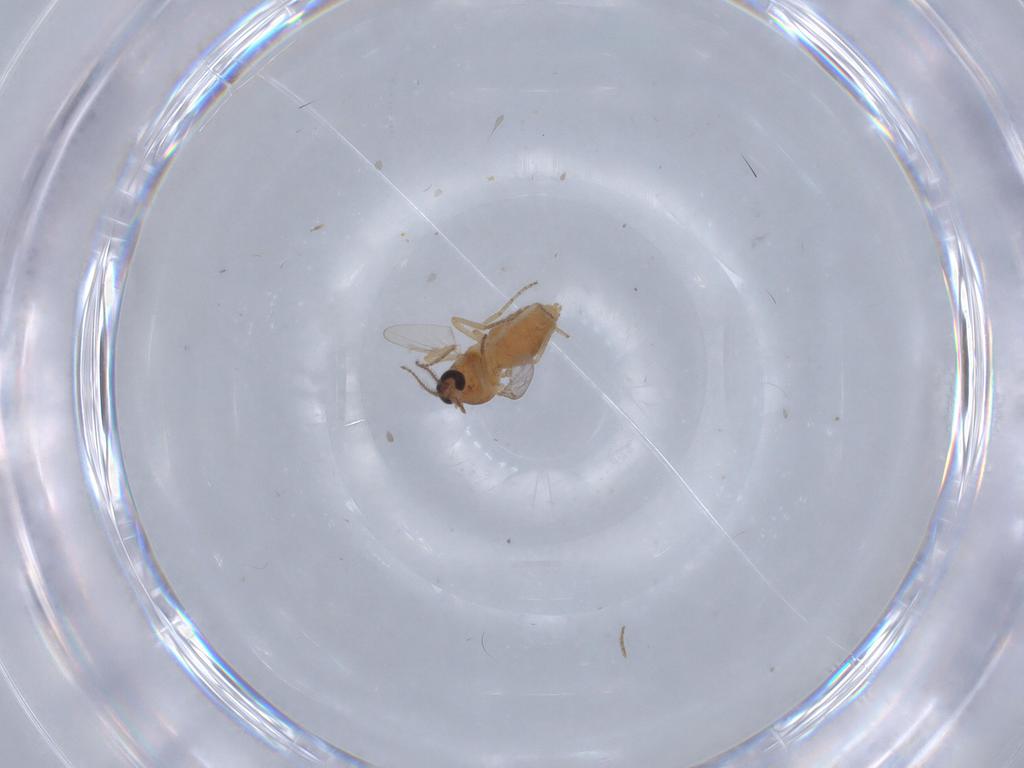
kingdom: Animalia
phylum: Arthropoda
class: Insecta
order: Diptera
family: Ceratopogonidae
